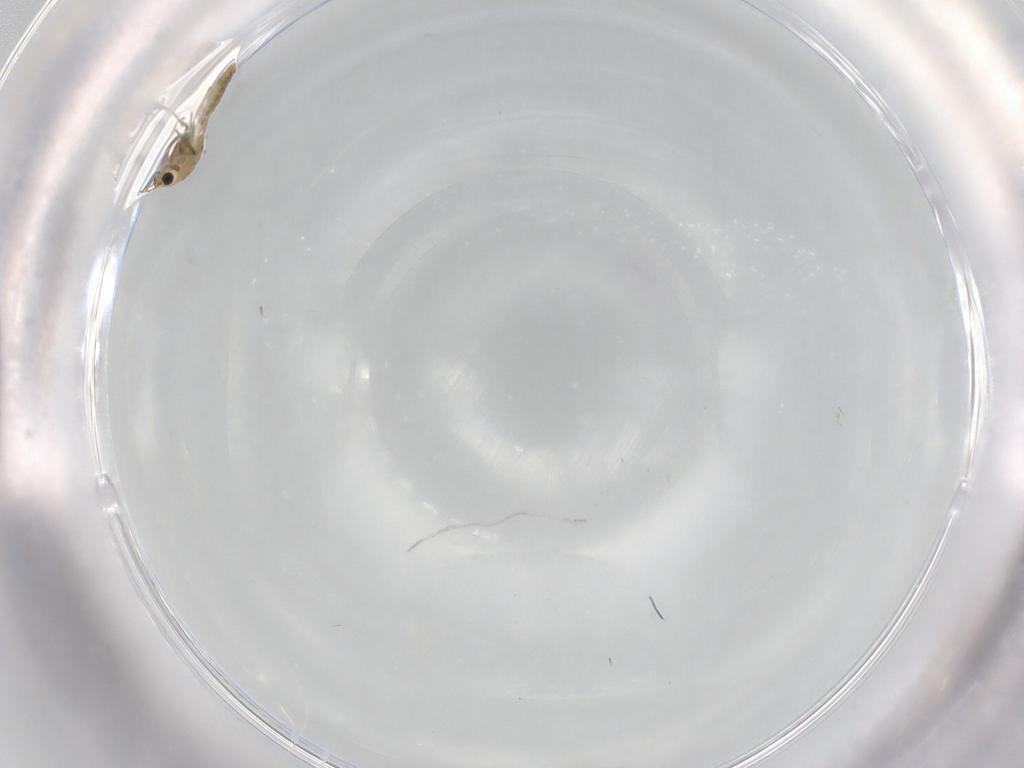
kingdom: Animalia
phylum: Arthropoda
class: Insecta
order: Diptera
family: Chironomidae
